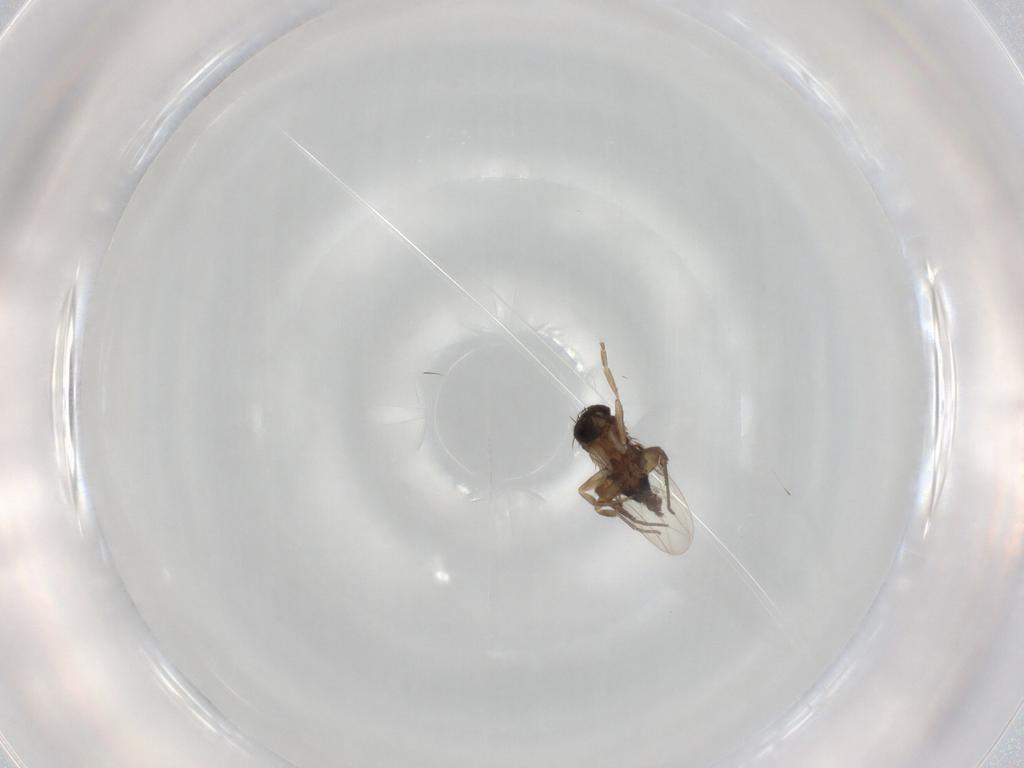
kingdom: Animalia
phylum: Arthropoda
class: Insecta
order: Diptera
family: Phoridae
